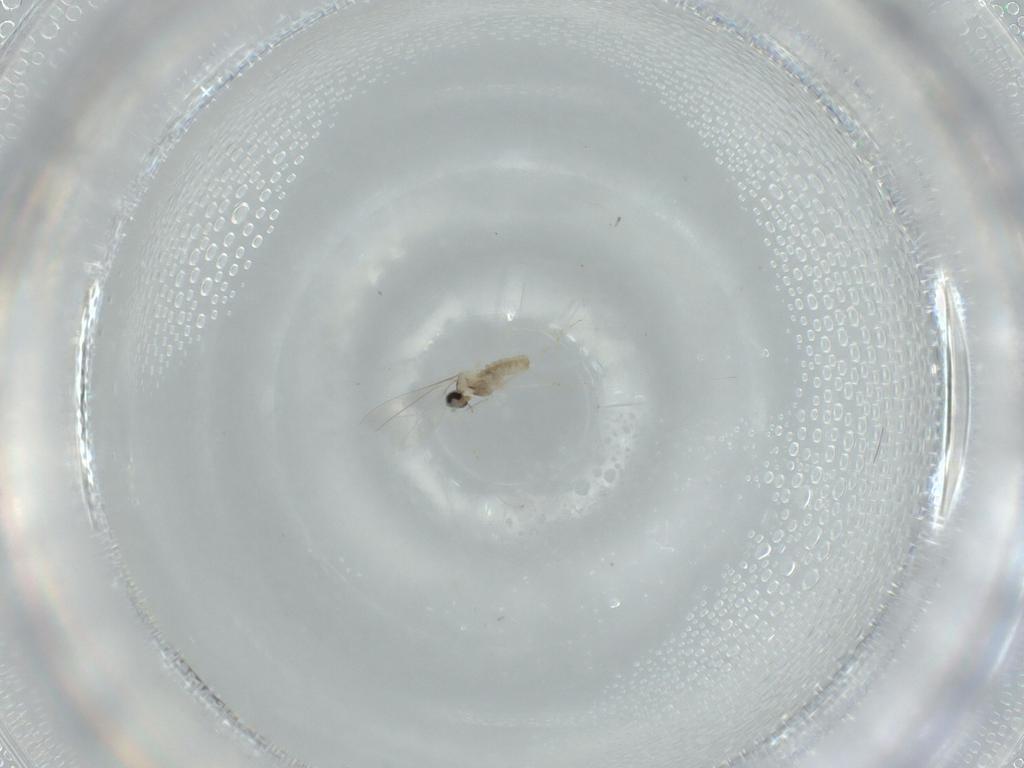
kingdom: Animalia
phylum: Arthropoda
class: Insecta
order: Diptera
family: Cecidomyiidae
